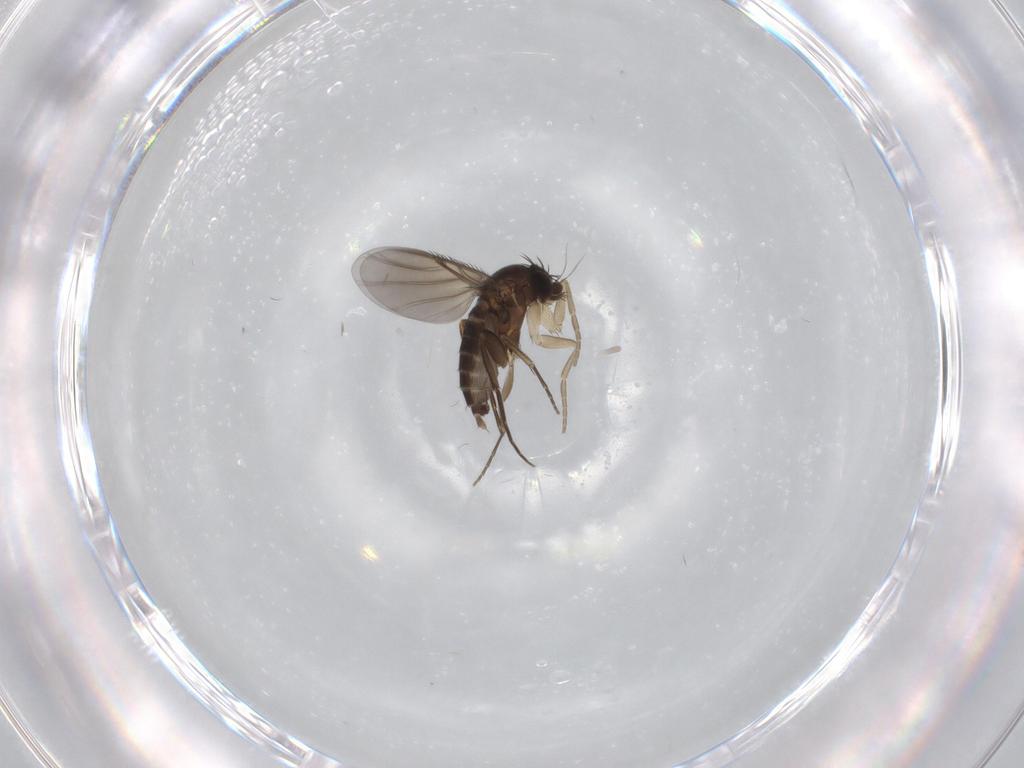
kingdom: Animalia
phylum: Arthropoda
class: Insecta
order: Diptera
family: Phoridae
